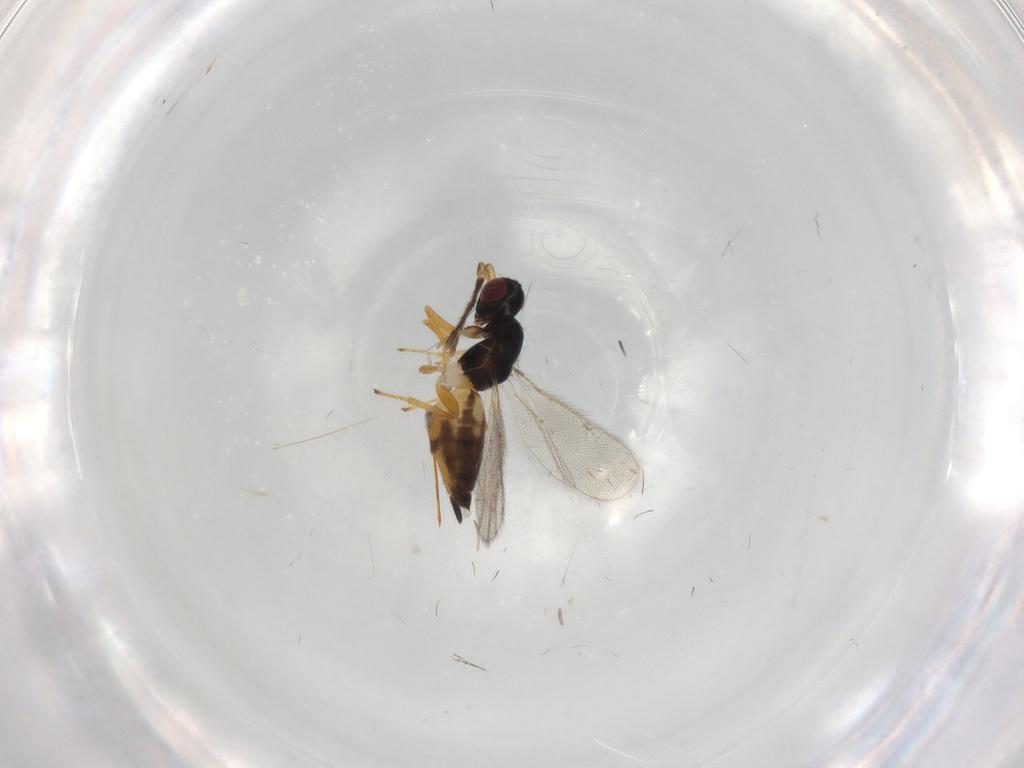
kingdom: Animalia
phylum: Arthropoda
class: Insecta
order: Hymenoptera
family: Eulophidae
